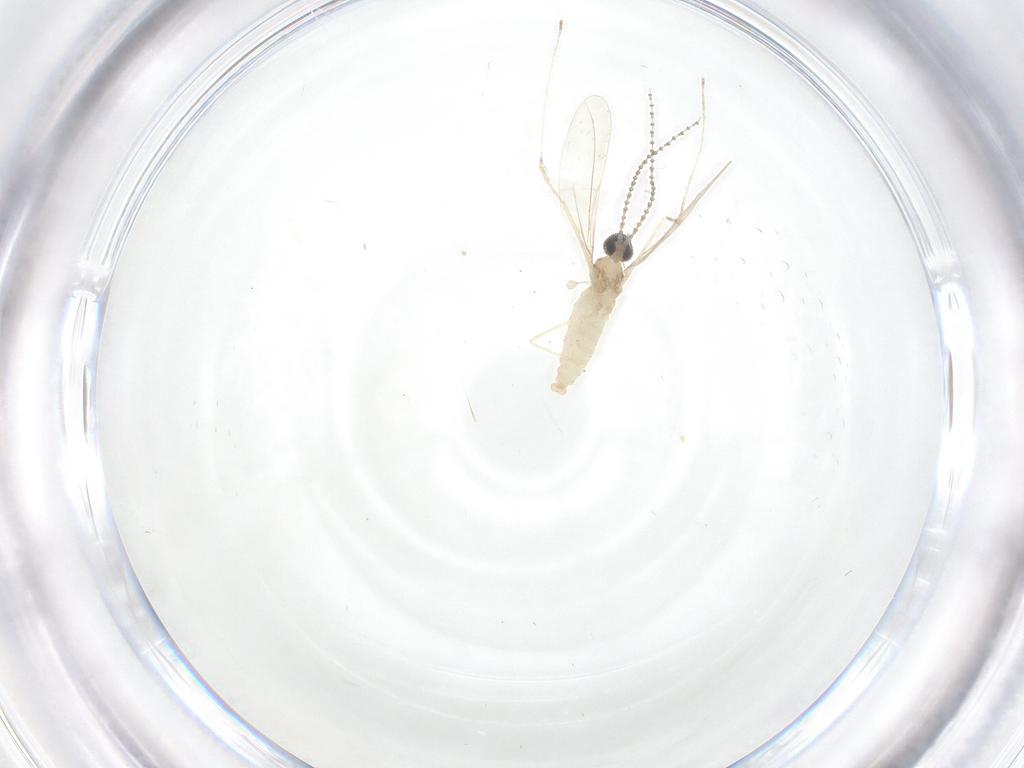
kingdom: Animalia
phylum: Arthropoda
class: Insecta
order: Diptera
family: Cecidomyiidae
